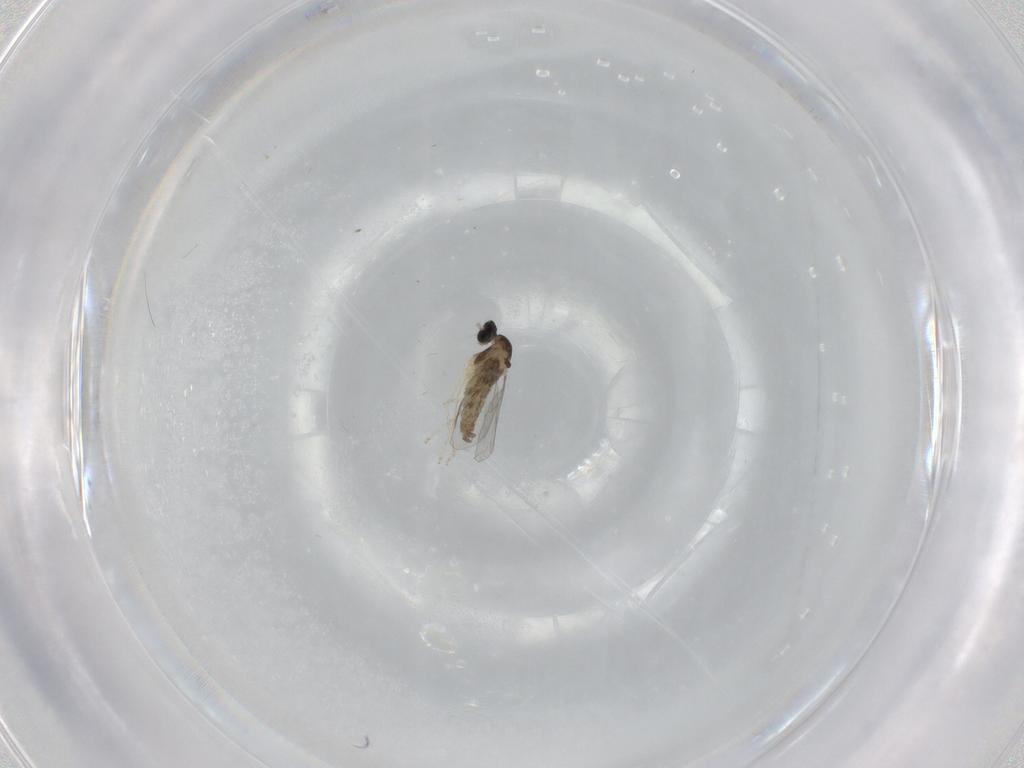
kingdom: Animalia
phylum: Arthropoda
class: Insecta
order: Diptera
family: Cecidomyiidae
